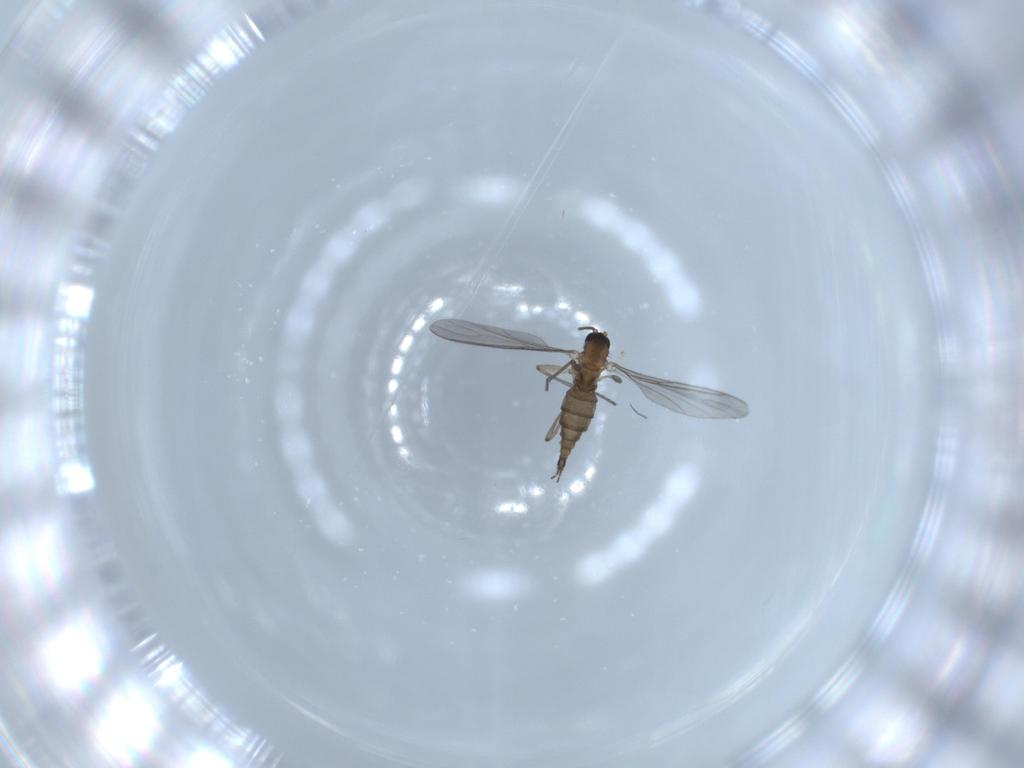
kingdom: Animalia
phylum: Arthropoda
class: Insecta
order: Diptera
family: Sciaridae
